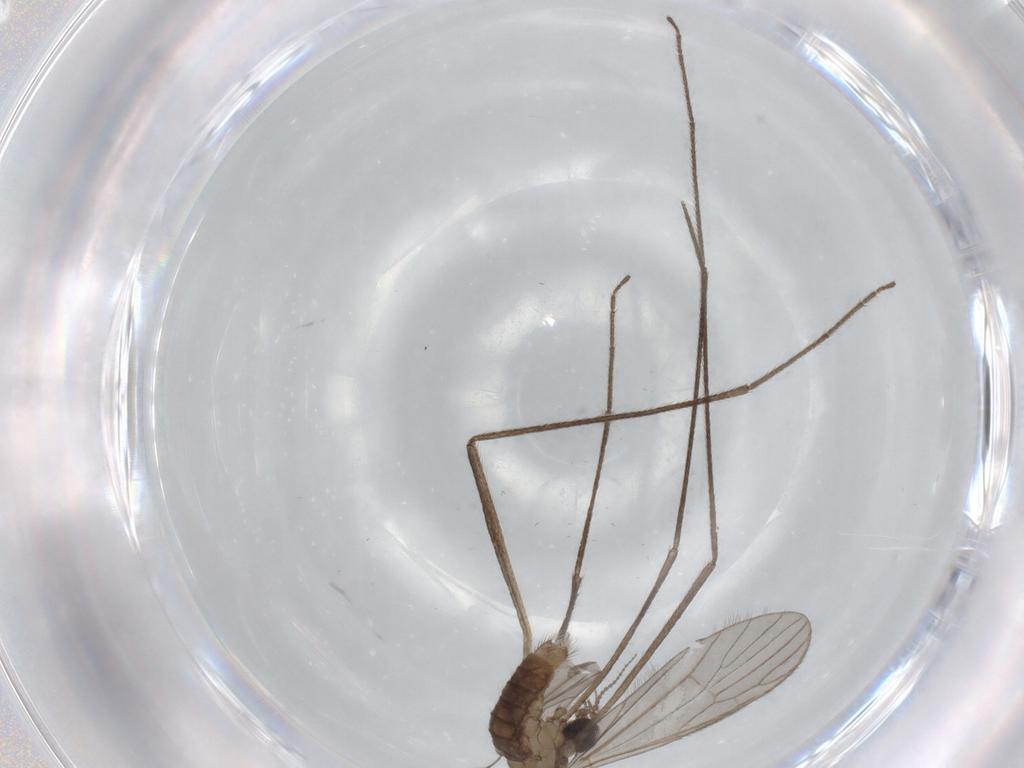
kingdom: Animalia
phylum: Arthropoda
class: Insecta
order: Diptera
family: Limoniidae
